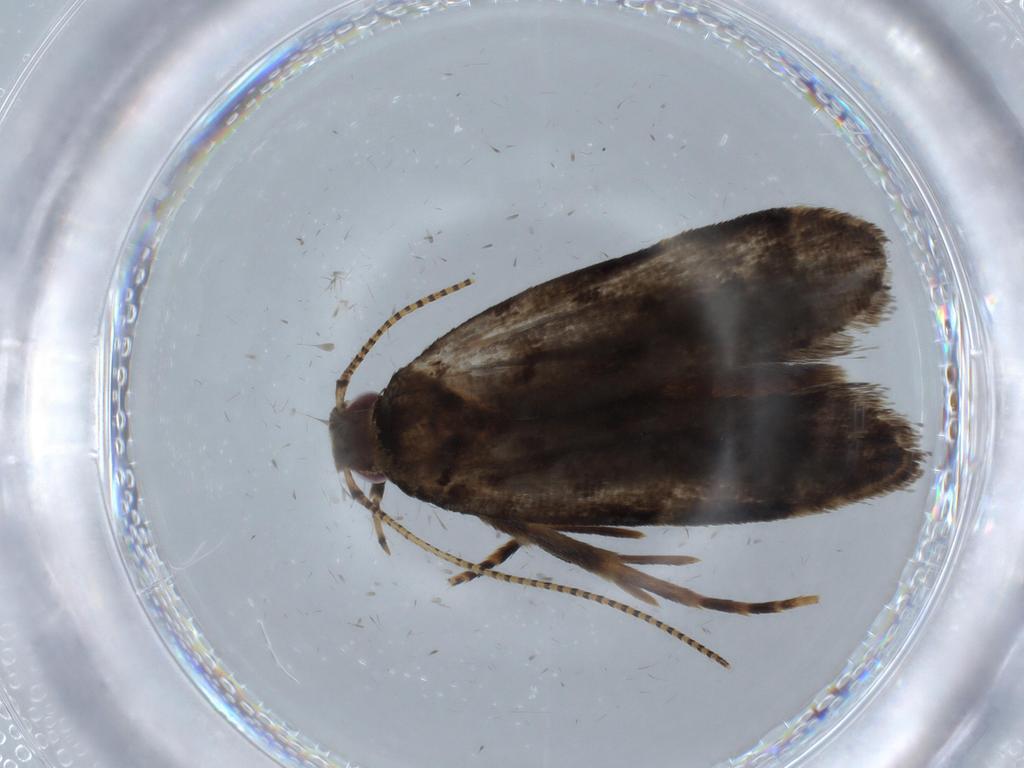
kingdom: Animalia
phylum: Arthropoda
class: Insecta
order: Lepidoptera
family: Gelechiidae
